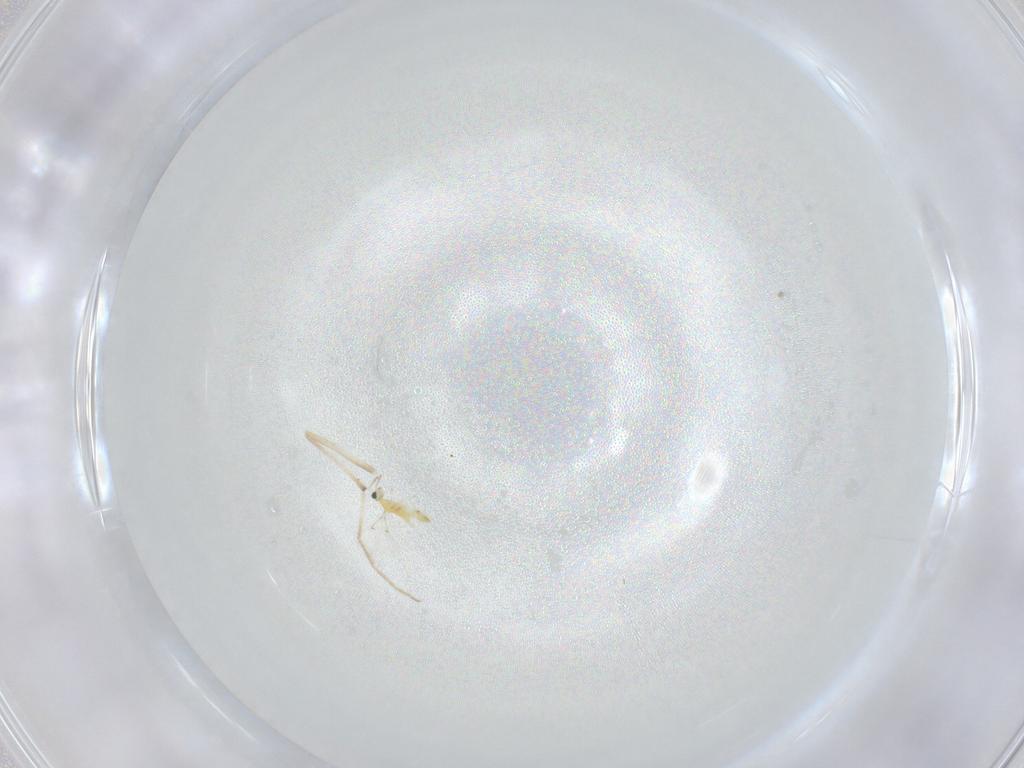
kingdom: Animalia
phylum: Arthropoda
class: Insecta
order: Hymenoptera
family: Trichogrammatidae
